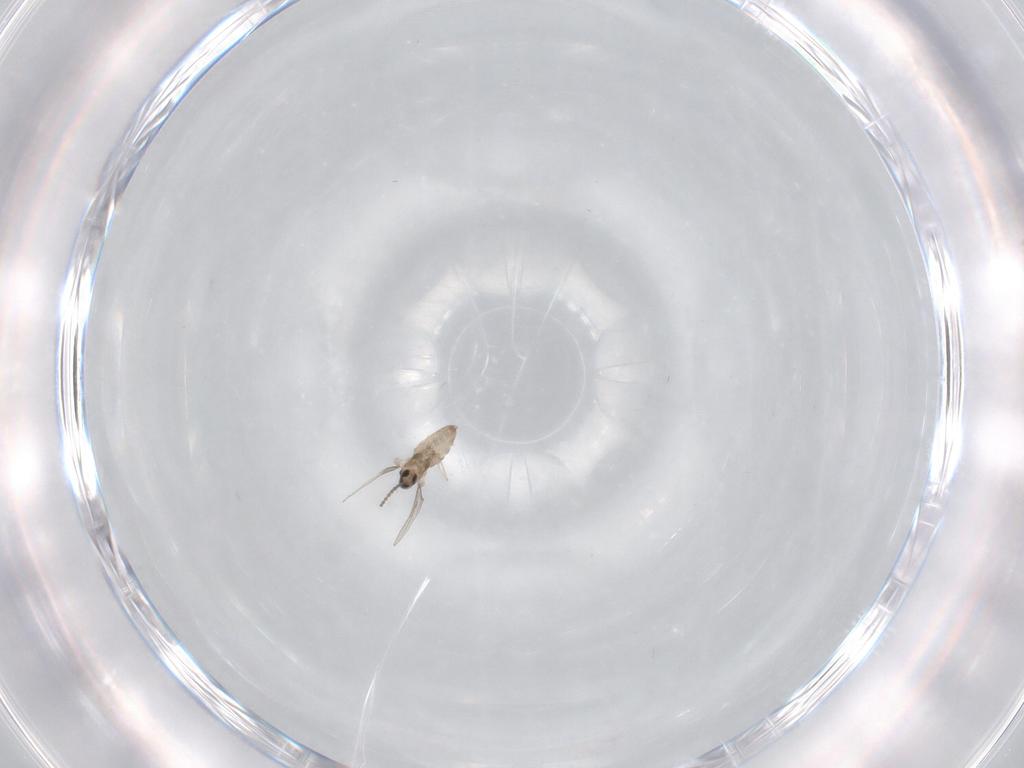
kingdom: Animalia
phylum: Arthropoda
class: Insecta
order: Diptera
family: Cecidomyiidae
